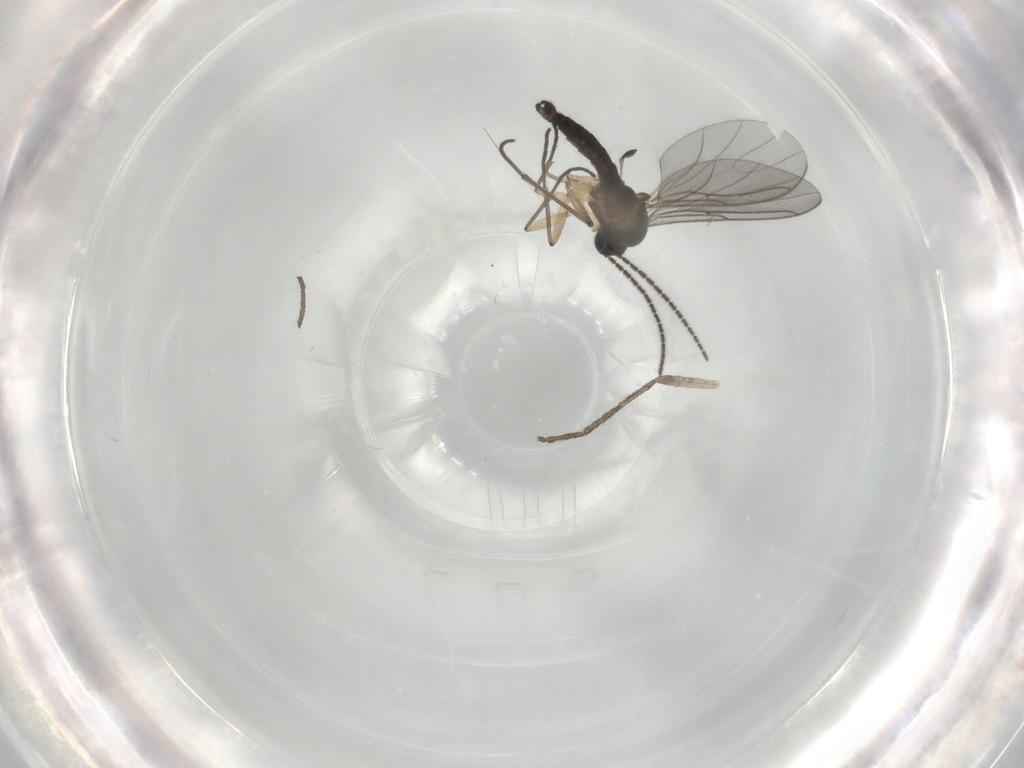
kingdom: Animalia
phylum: Arthropoda
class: Insecta
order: Diptera
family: Sciaridae
